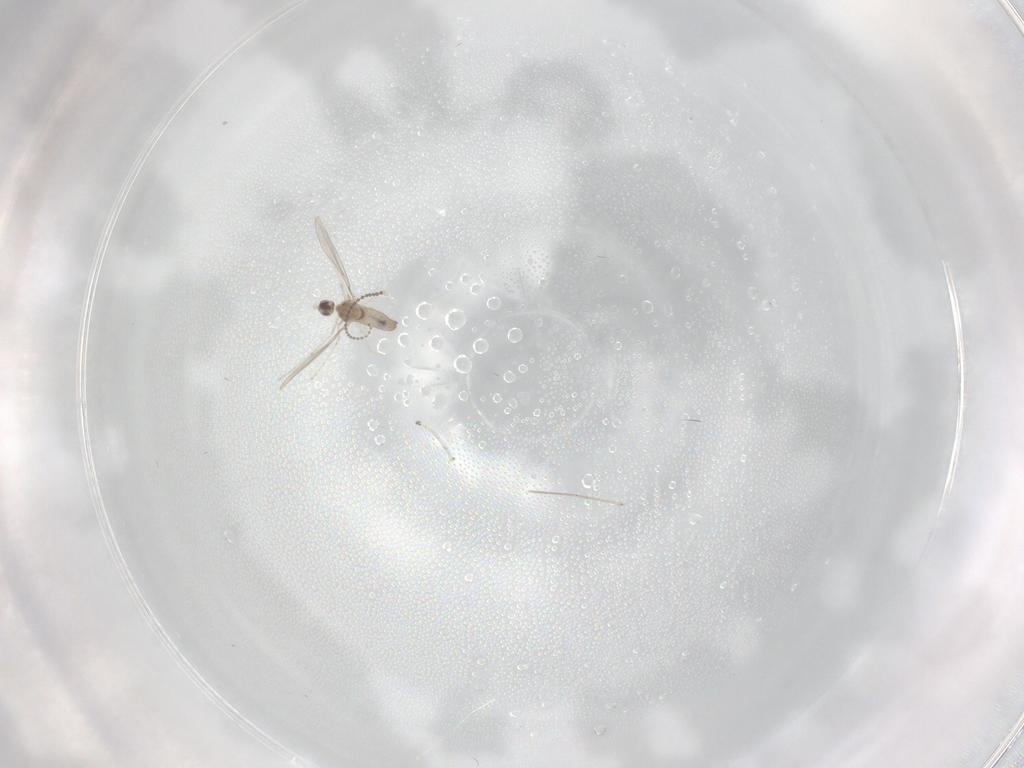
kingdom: Animalia
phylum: Arthropoda
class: Insecta
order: Diptera
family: Cecidomyiidae
